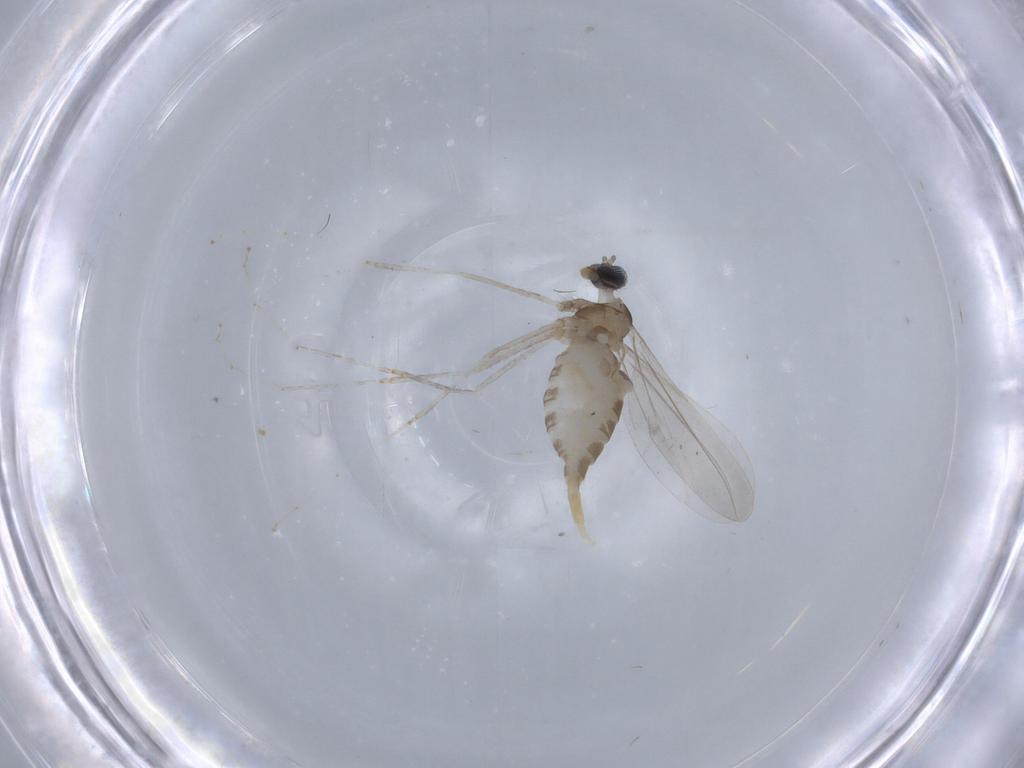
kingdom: Animalia
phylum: Arthropoda
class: Insecta
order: Diptera
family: Cecidomyiidae
